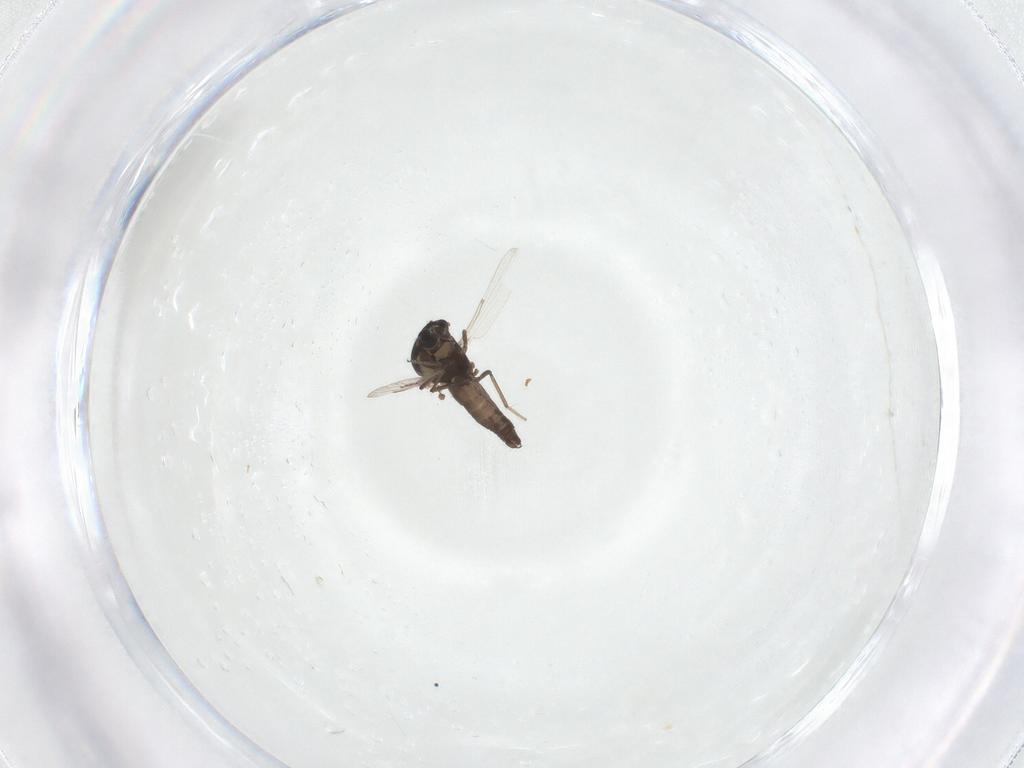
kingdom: Animalia
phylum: Arthropoda
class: Insecta
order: Diptera
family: Ceratopogonidae
